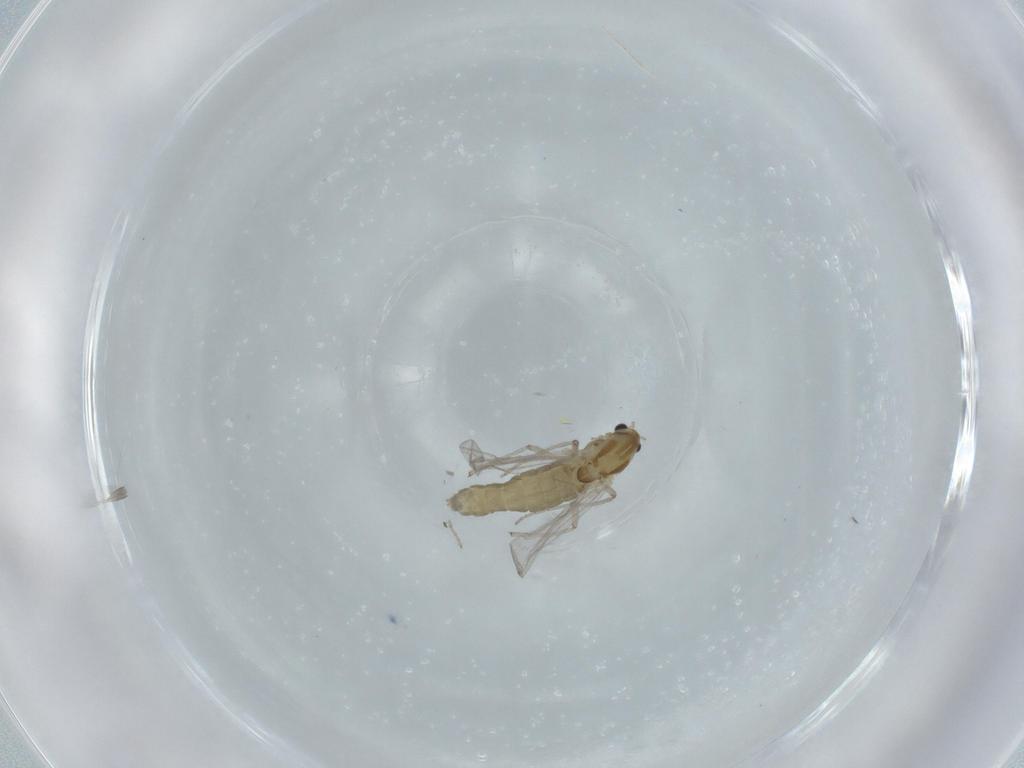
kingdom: Animalia
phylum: Arthropoda
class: Insecta
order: Diptera
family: Chironomidae
